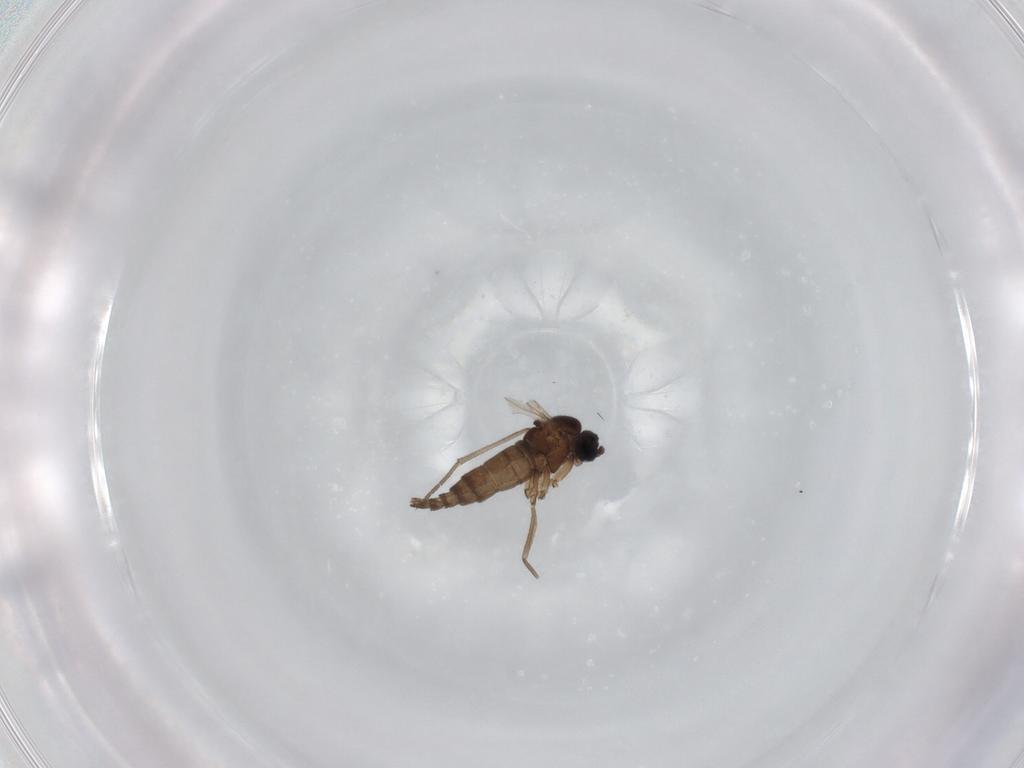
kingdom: Animalia
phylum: Arthropoda
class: Insecta
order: Diptera
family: Sciaridae
